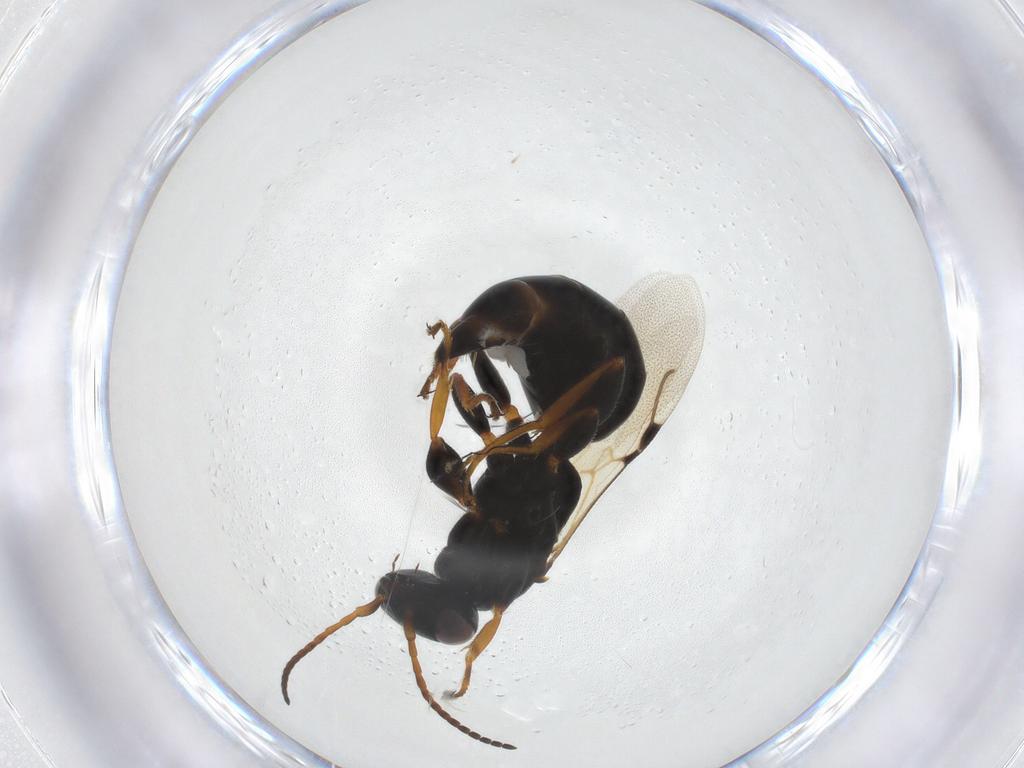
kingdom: Animalia
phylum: Arthropoda
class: Insecta
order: Hymenoptera
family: Bethylidae
